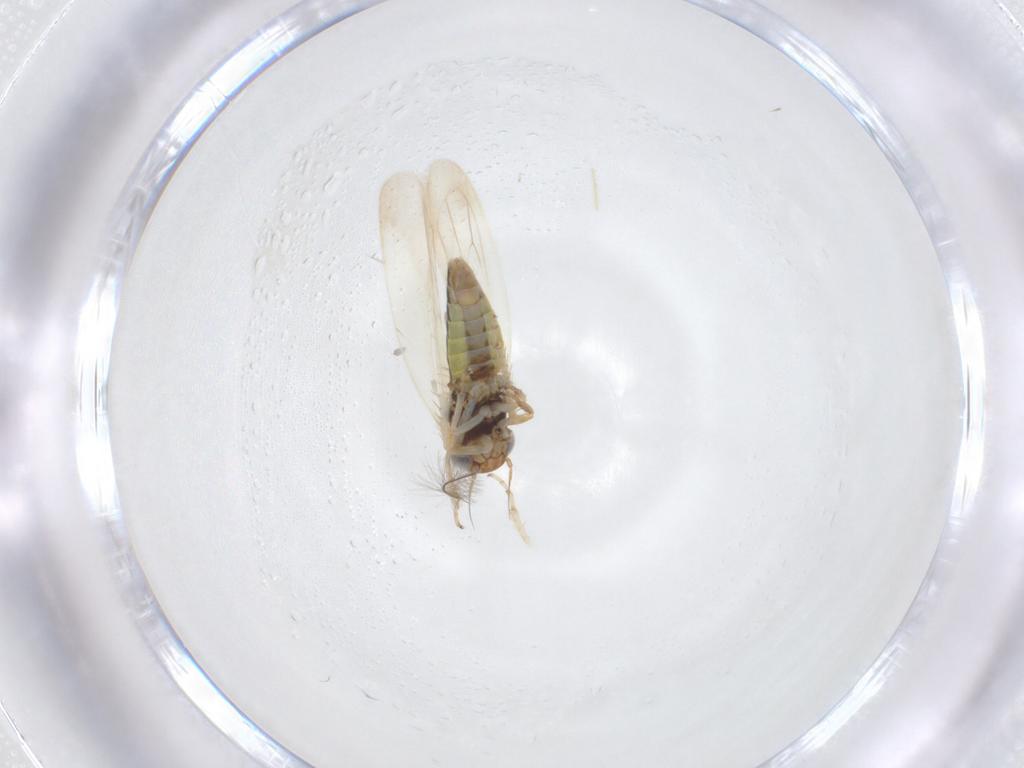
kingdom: Animalia
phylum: Arthropoda
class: Insecta
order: Hemiptera
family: Cicadellidae
